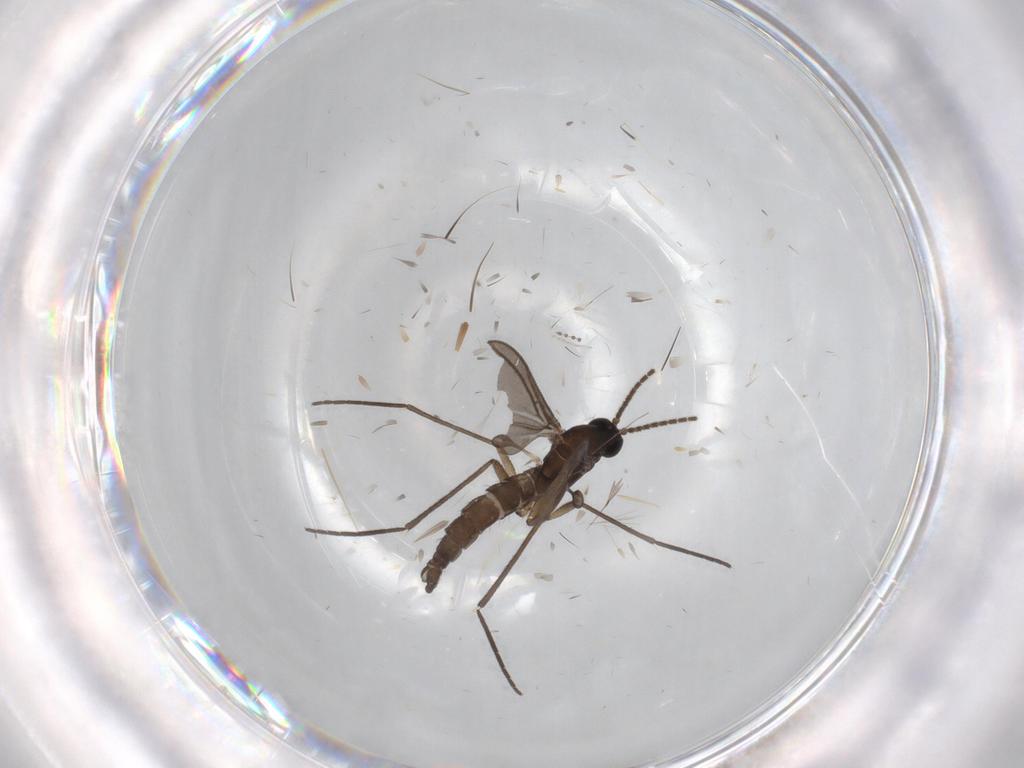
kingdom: Animalia
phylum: Arthropoda
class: Insecta
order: Diptera
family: Sciaridae
